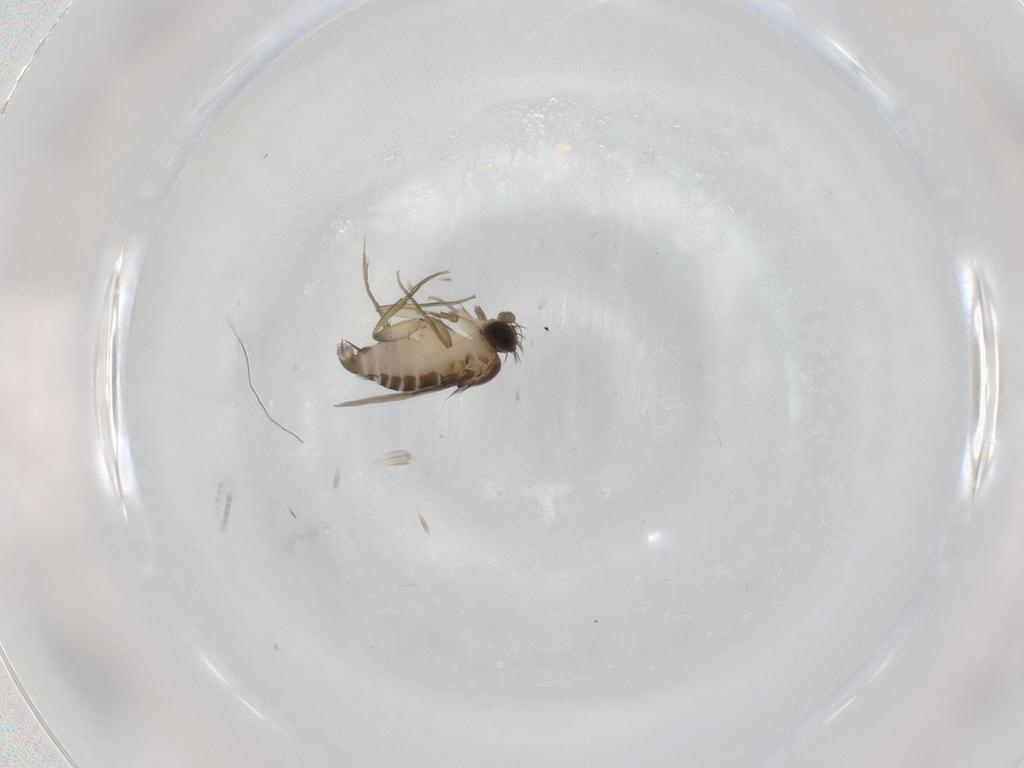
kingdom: Animalia
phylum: Arthropoda
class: Insecta
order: Diptera
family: Phoridae
